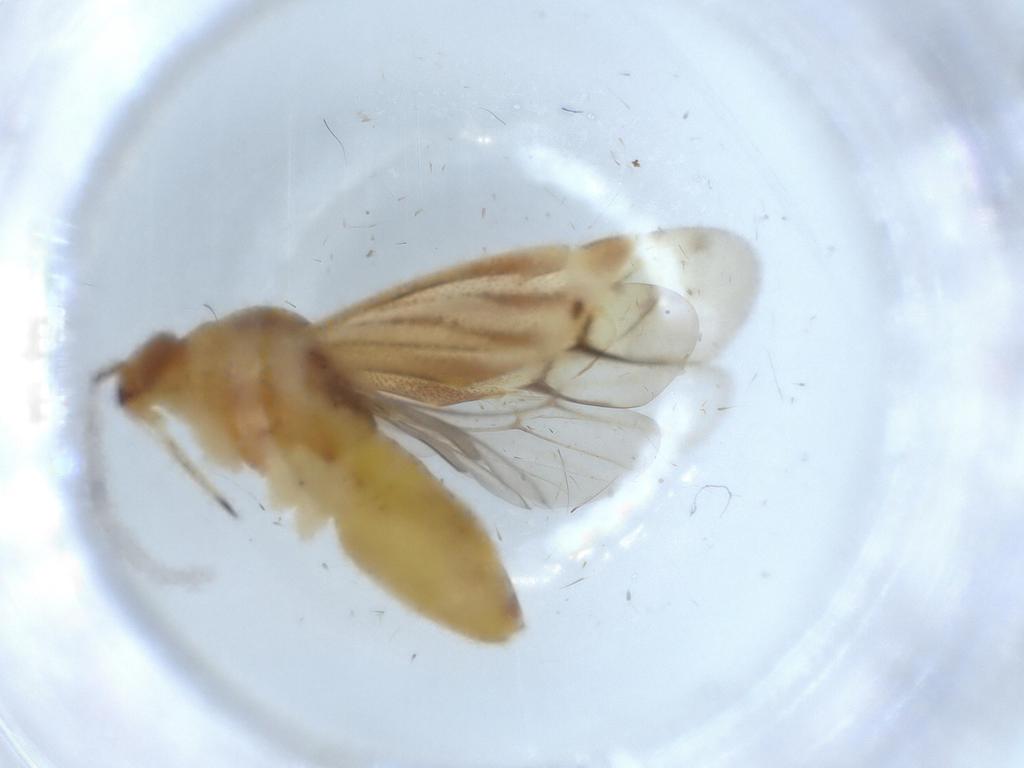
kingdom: Animalia
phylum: Arthropoda
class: Insecta
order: Hemiptera
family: Miridae
